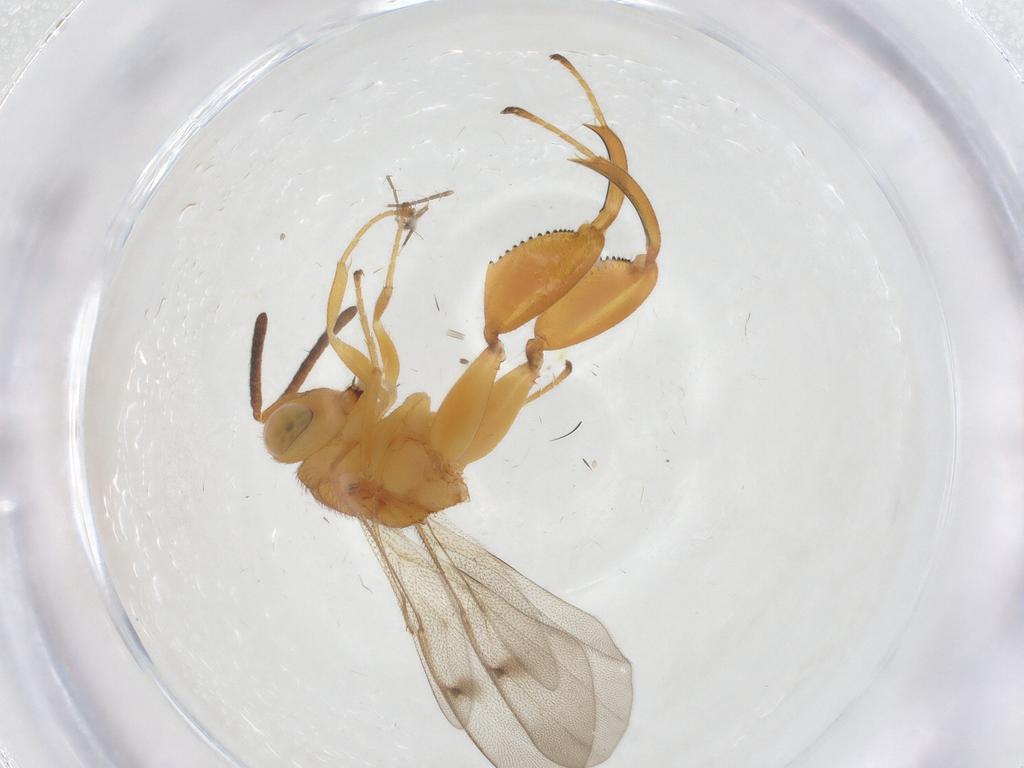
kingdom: Animalia
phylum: Arthropoda
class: Insecta
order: Hymenoptera
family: Chalcididae
